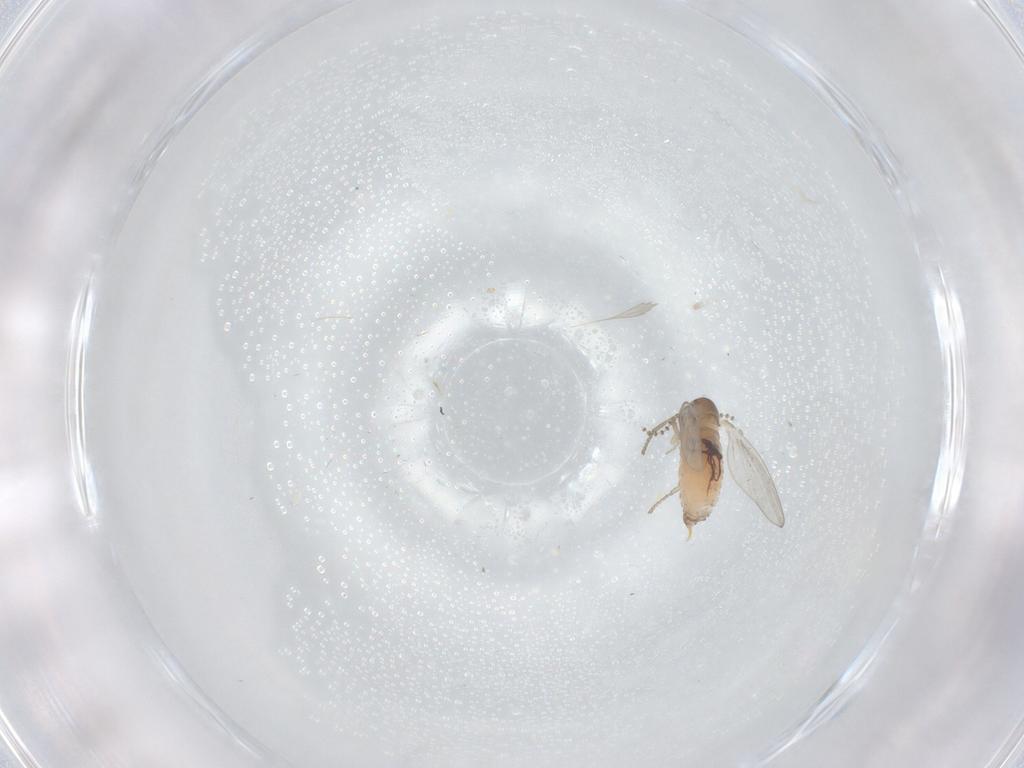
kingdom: Animalia
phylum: Arthropoda
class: Insecta
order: Diptera
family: Psychodidae
